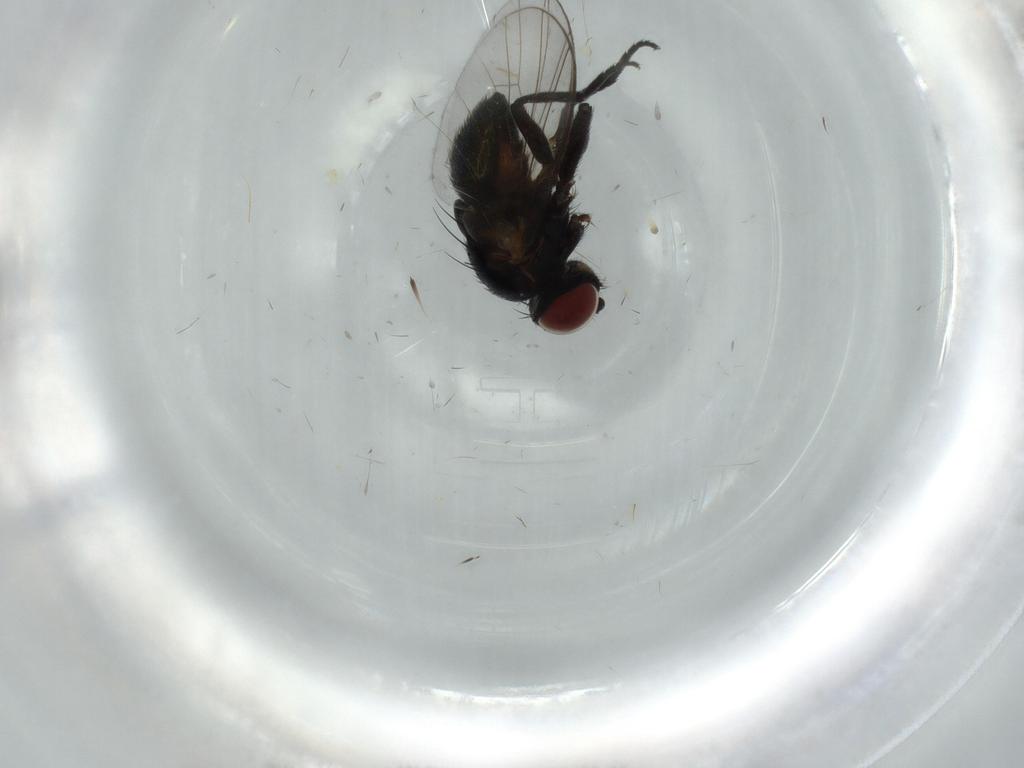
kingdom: Animalia
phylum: Arthropoda
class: Insecta
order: Diptera
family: Agromyzidae
